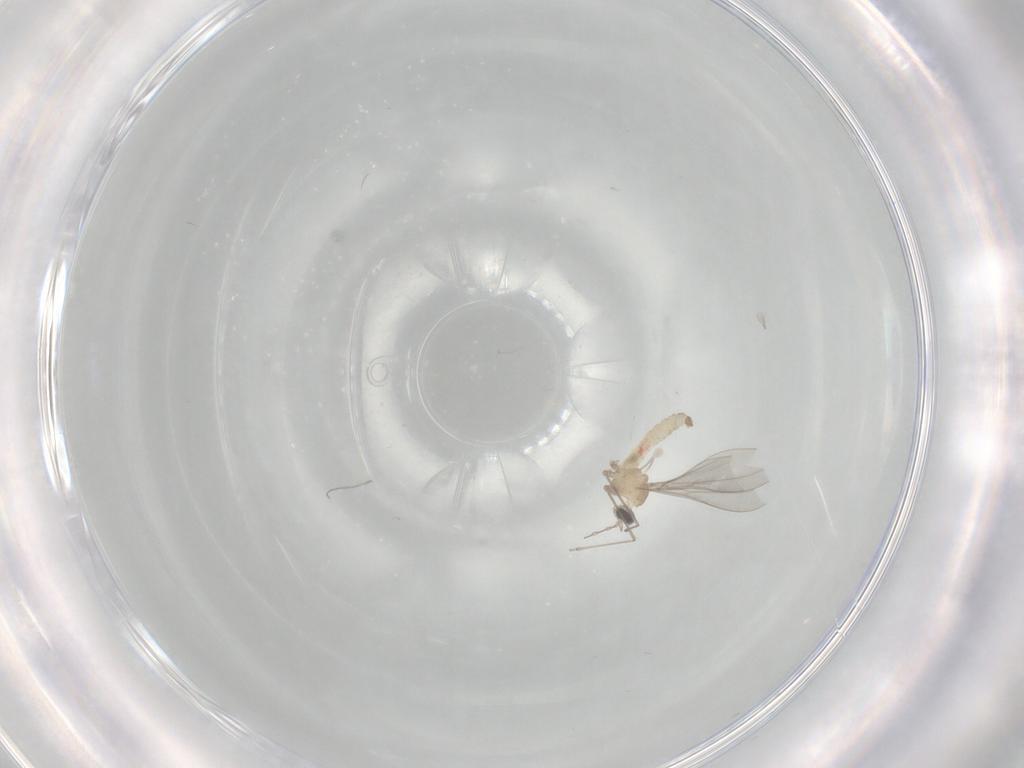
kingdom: Animalia
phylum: Arthropoda
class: Insecta
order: Diptera
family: Cecidomyiidae
